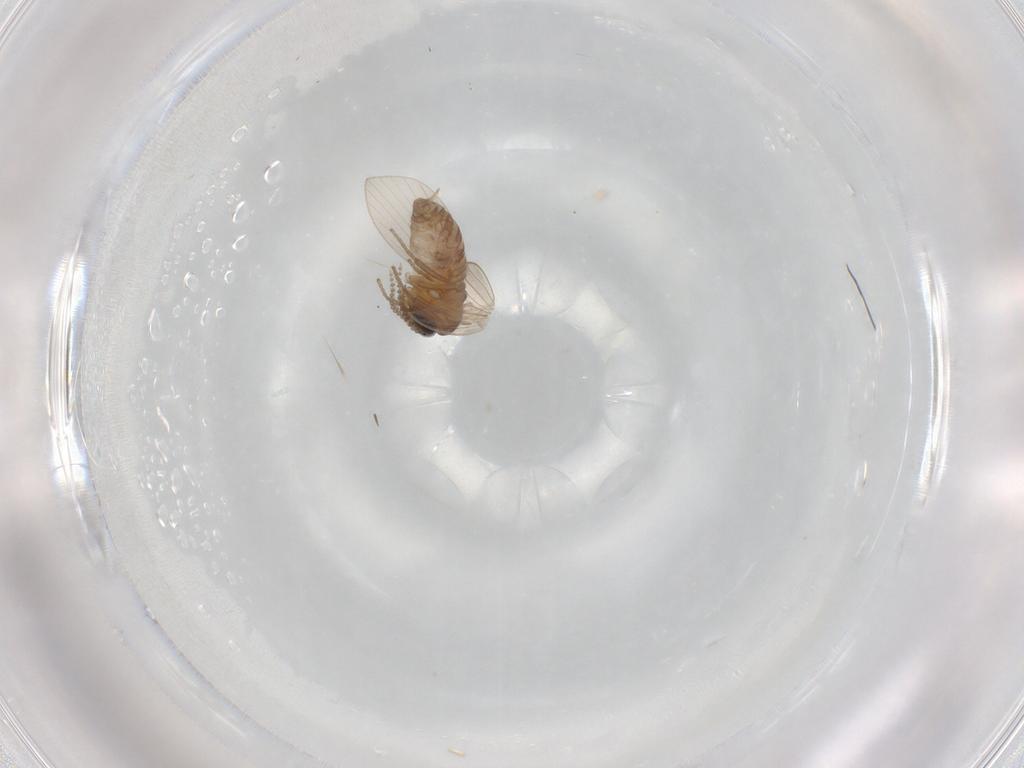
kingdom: Animalia
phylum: Arthropoda
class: Insecta
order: Diptera
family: Psychodidae
